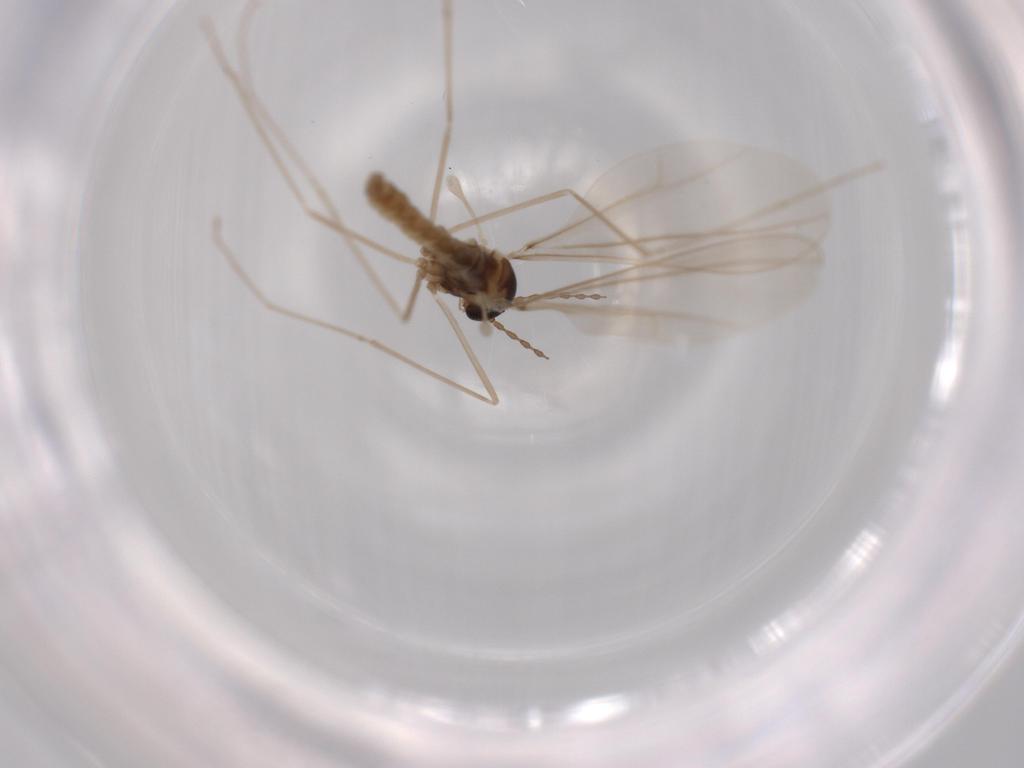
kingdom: Animalia
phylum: Arthropoda
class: Insecta
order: Diptera
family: Cecidomyiidae
